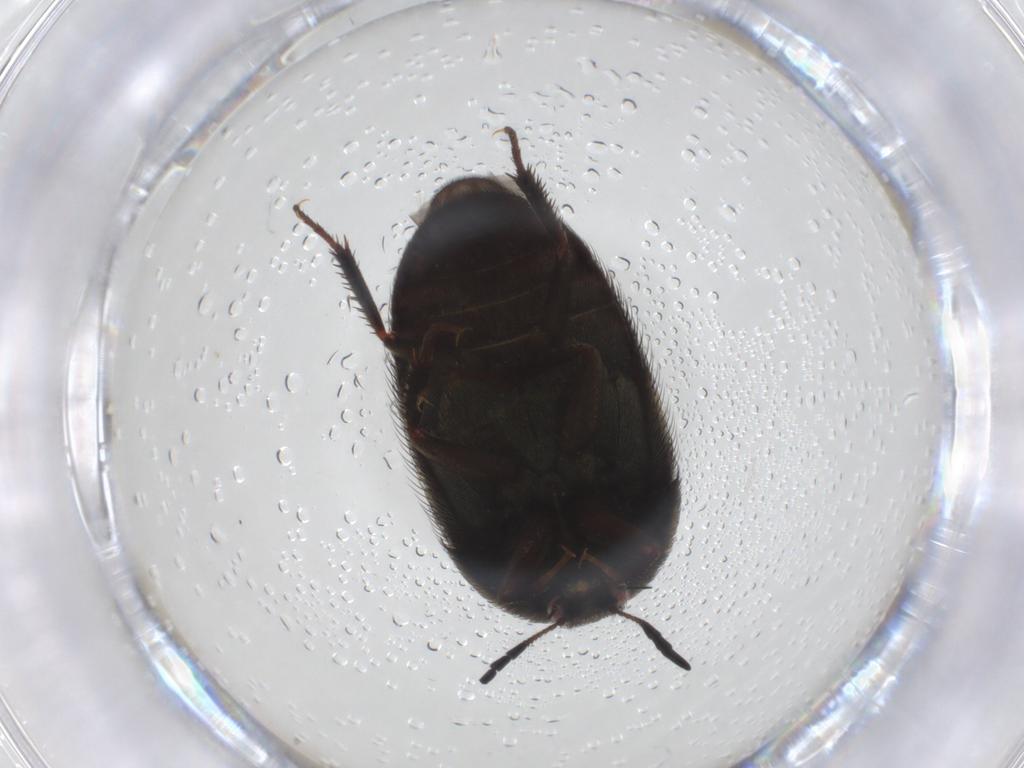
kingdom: Animalia
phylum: Arthropoda
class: Insecta
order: Coleoptera
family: Dermestidae
